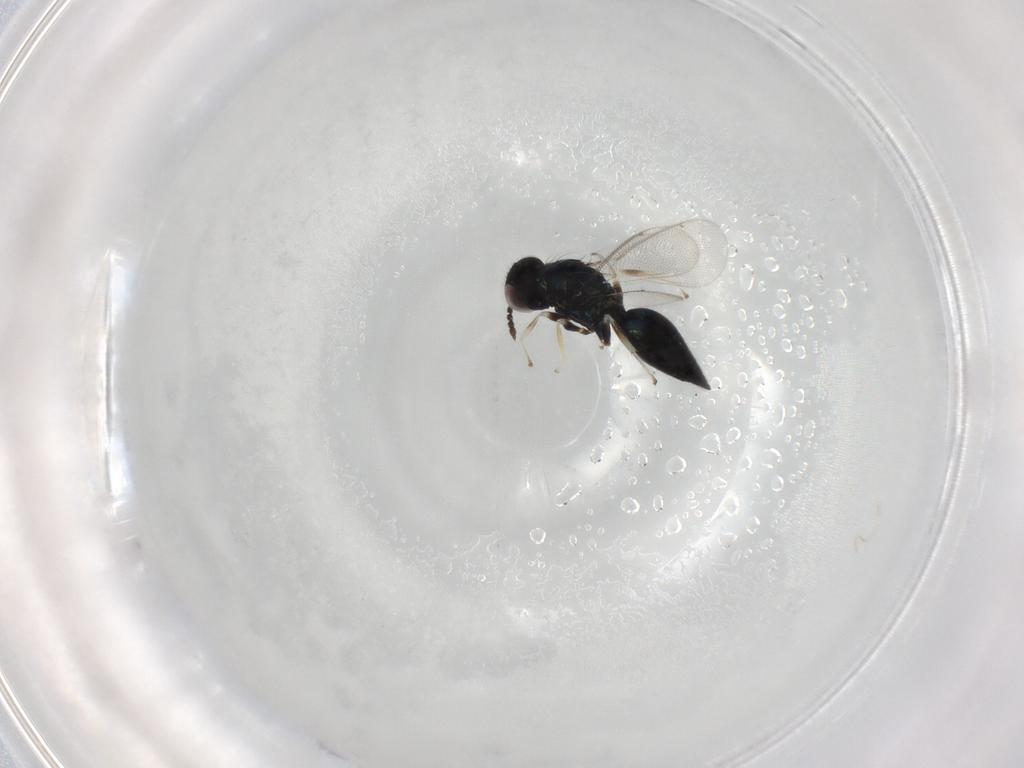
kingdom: Animalia
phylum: Arthropoda
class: Insecta
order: Hymenoptera
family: Eulophidae
